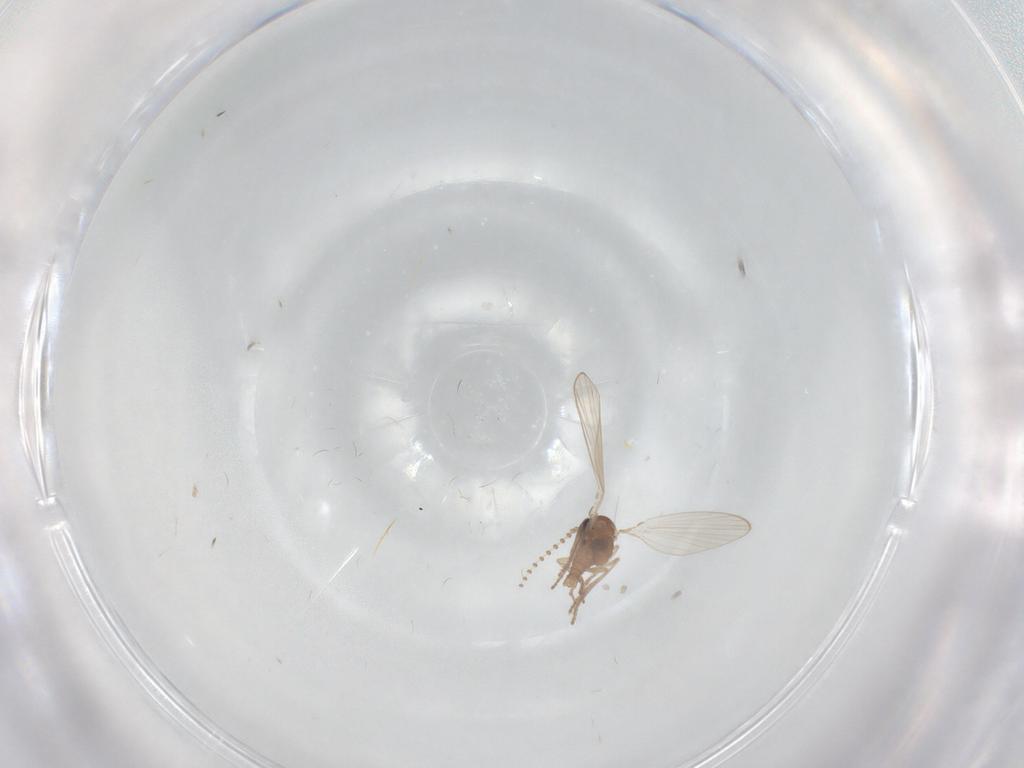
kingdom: Animalia
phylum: Arthropoda
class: Insecta
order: Diptera
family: Psychodidae
